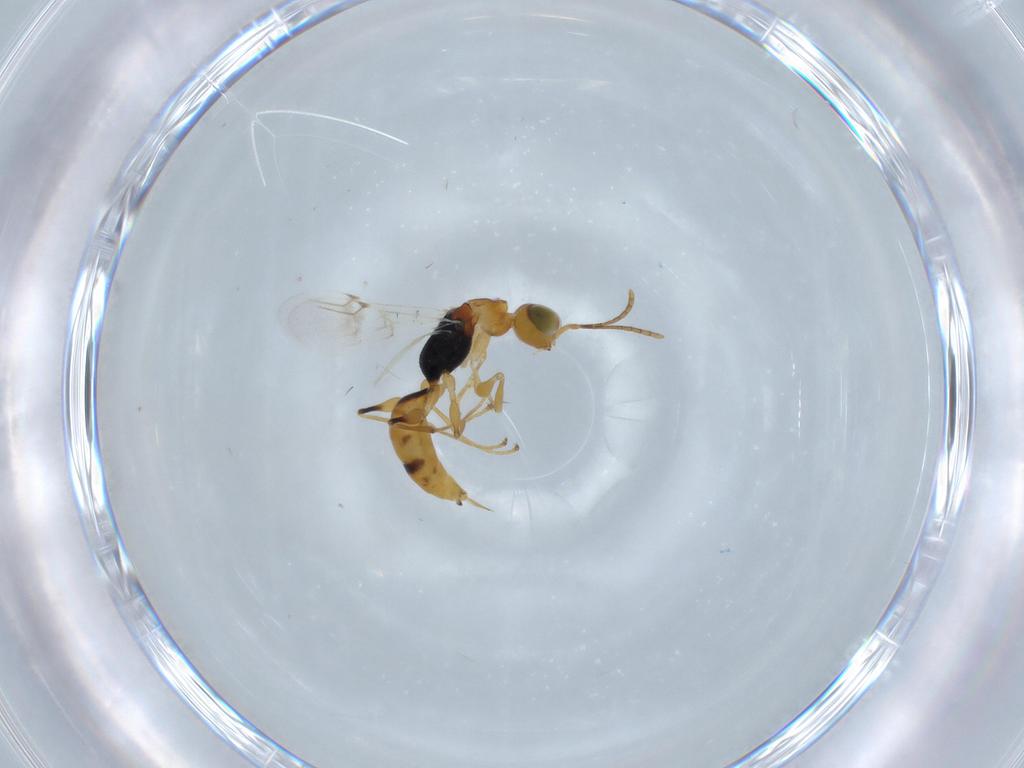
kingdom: Animalia
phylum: Arthropoda
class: Insecta
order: Hymenoptera
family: Dryinidae
